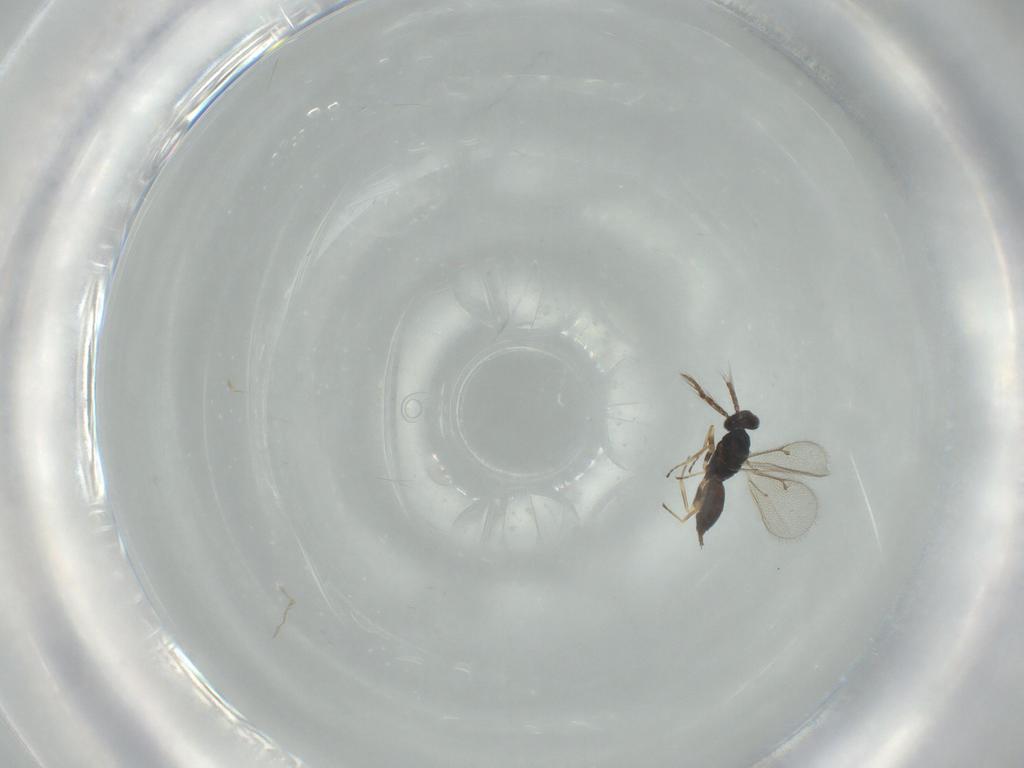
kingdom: Animalia
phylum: Arthropoda
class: Insecta
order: Hymenoptera
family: Eulophidae
